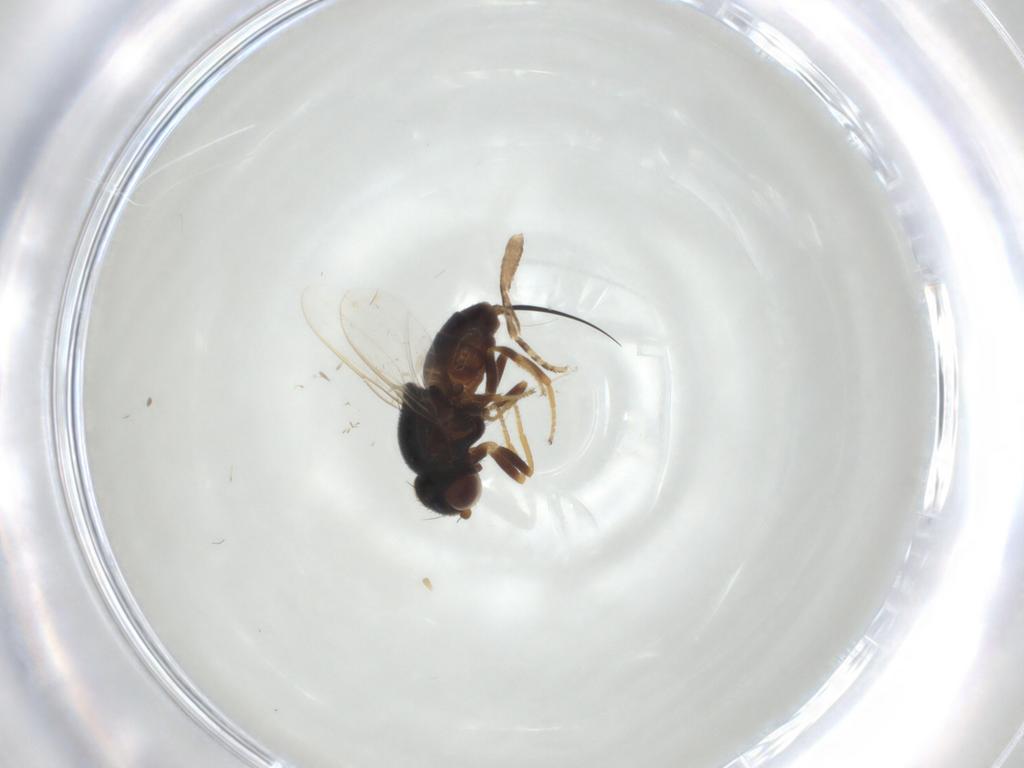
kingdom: Animalia
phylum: Arthropoda
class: Insecta
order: Diptera
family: Chloropidae
